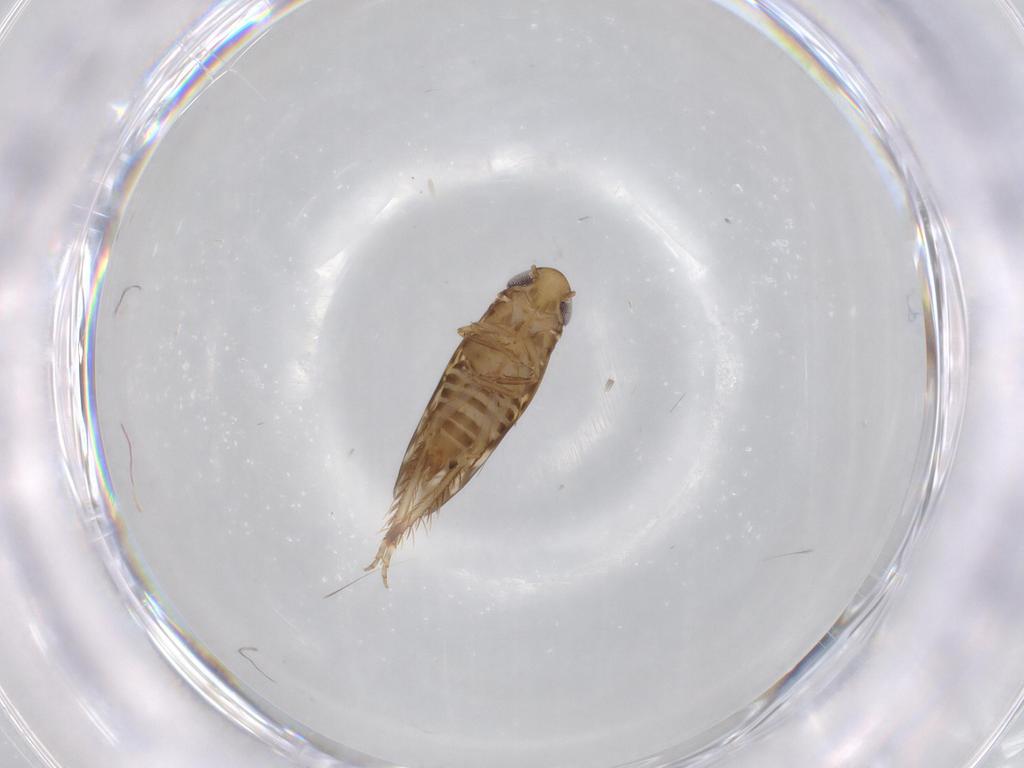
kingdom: Animalia
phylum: Arthropoda
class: Insecta
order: Hemiptera
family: Cicadellidae
